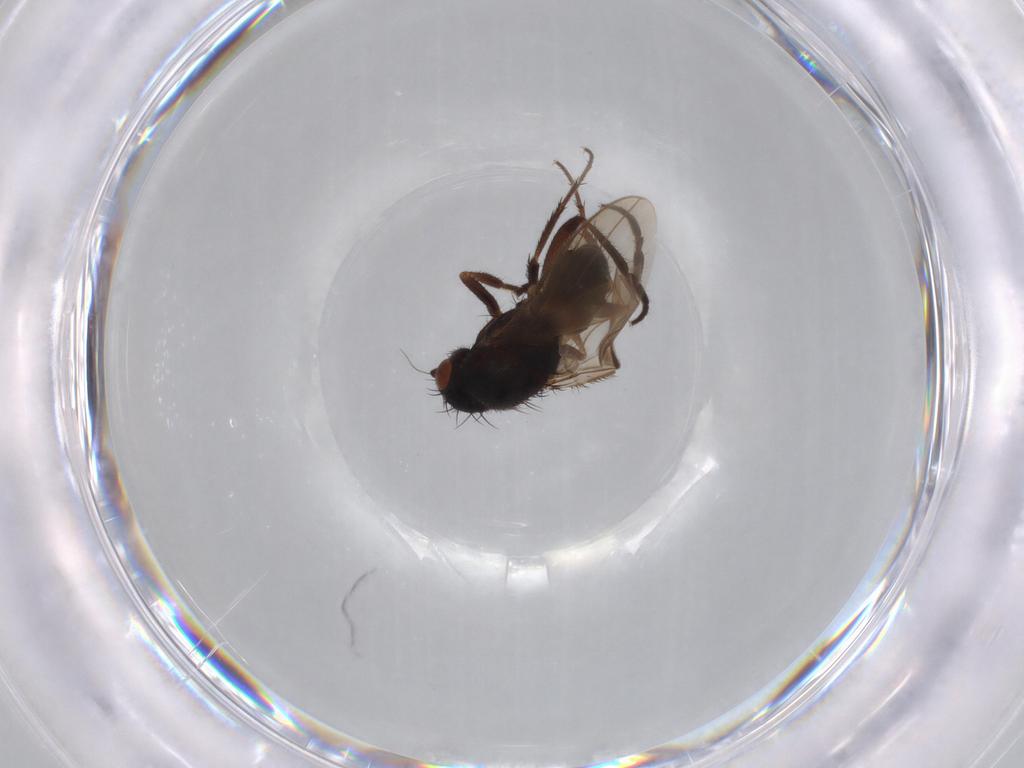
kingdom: Animalia
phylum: Arthropoda
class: Insecta
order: Diptera
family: Sphaeroceridae
